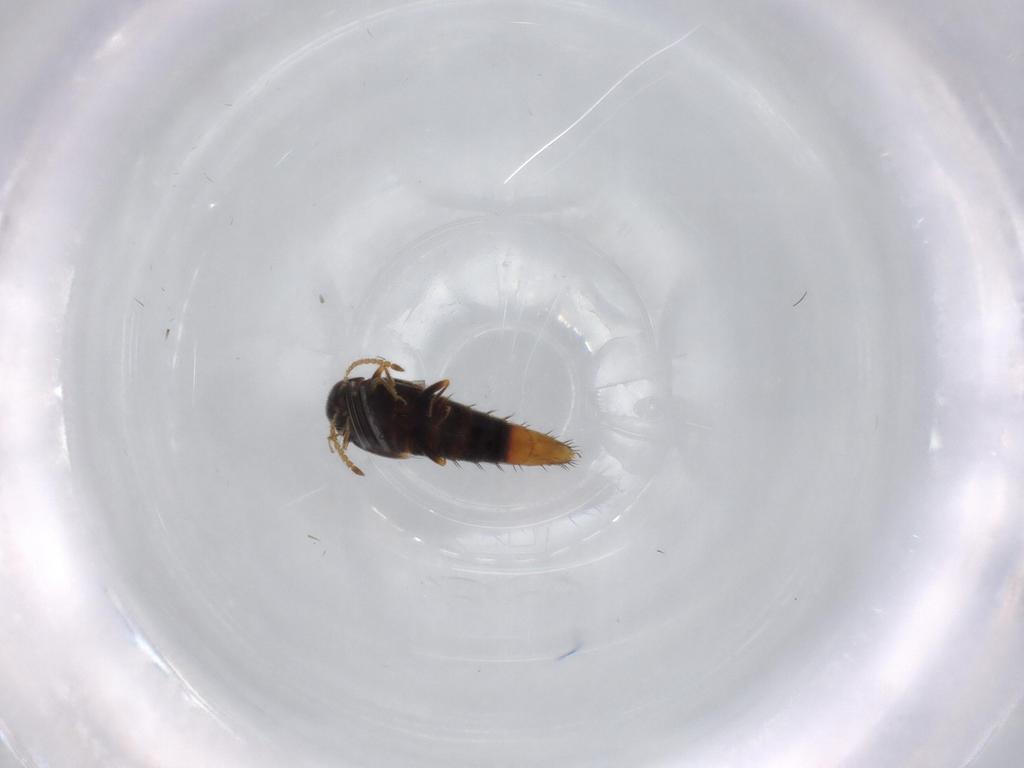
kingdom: Animalia
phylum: Arthropoda
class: Insecta
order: Coleoptera
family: Staphylinidae
